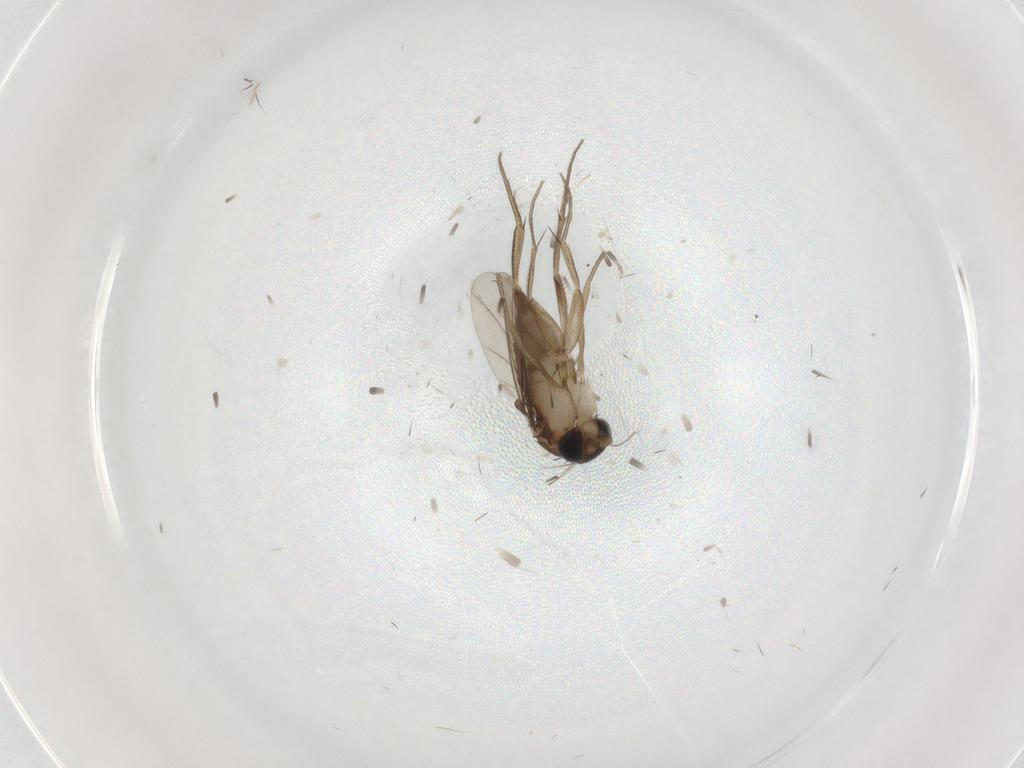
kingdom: Animalia
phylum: Arthropoda
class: Insecta
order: Diptera
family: Phoridae
